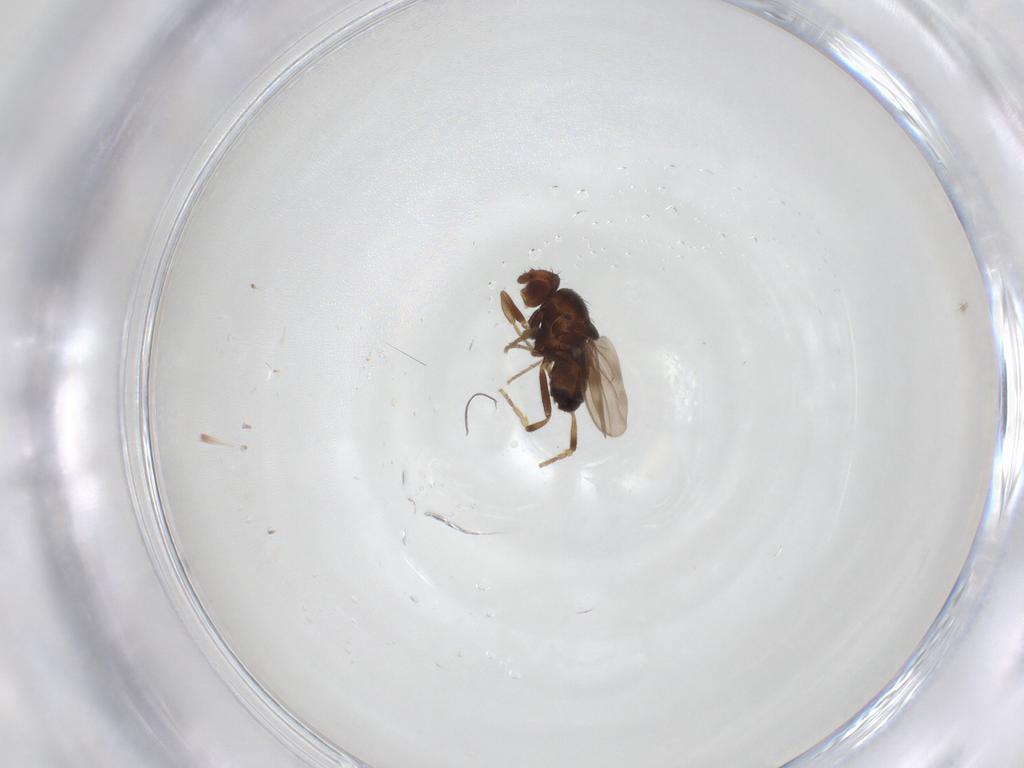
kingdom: Animalia
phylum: Arthropoda
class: Insecta
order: Diptera
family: Sphaeroceridae
